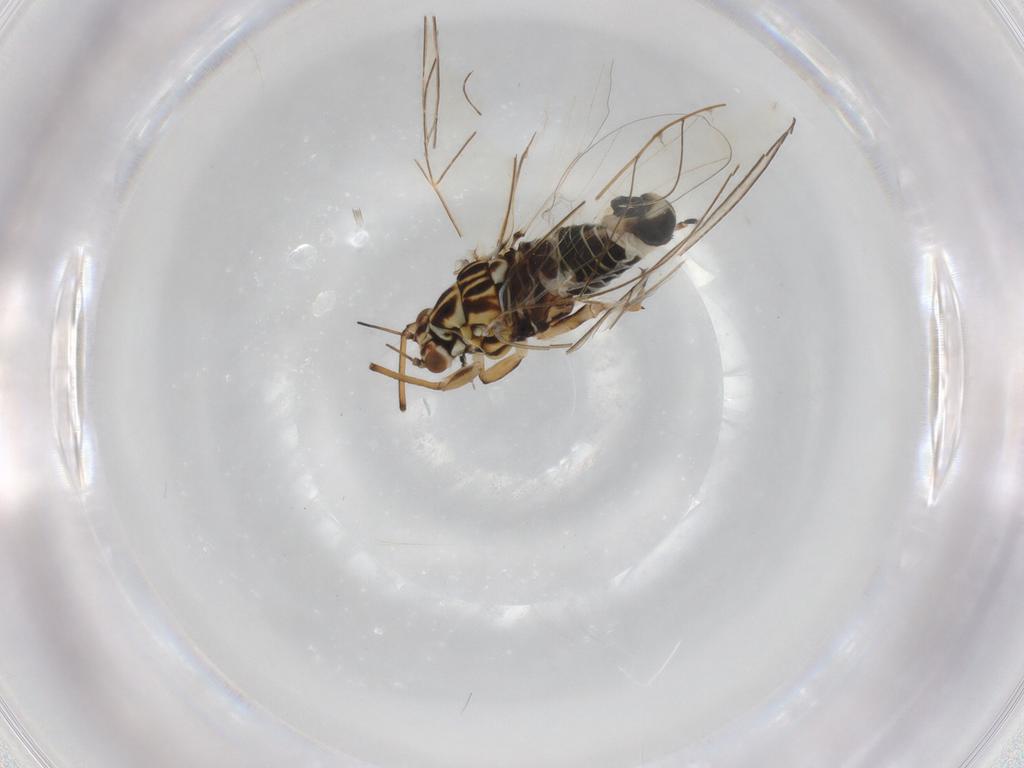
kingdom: Animalia
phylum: Arthropoda
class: Insecta
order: Hemiptera
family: Triozidae
